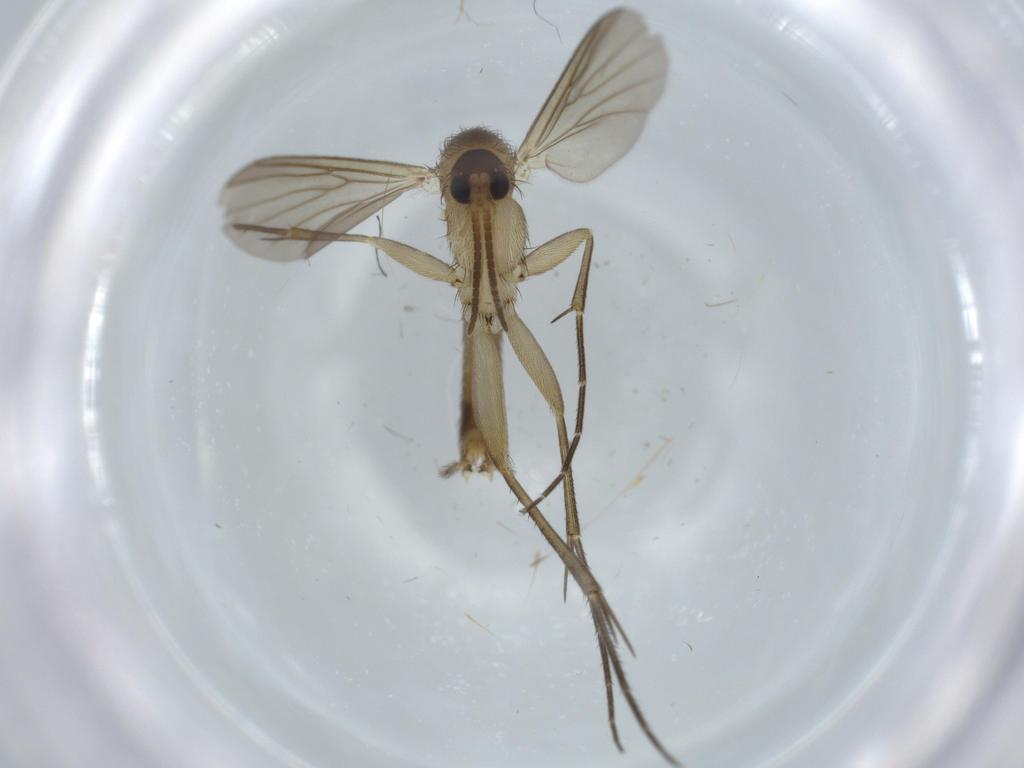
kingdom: Animalia
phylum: Arthropoda
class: Insecta
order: Diptera
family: Mycetophilidae
